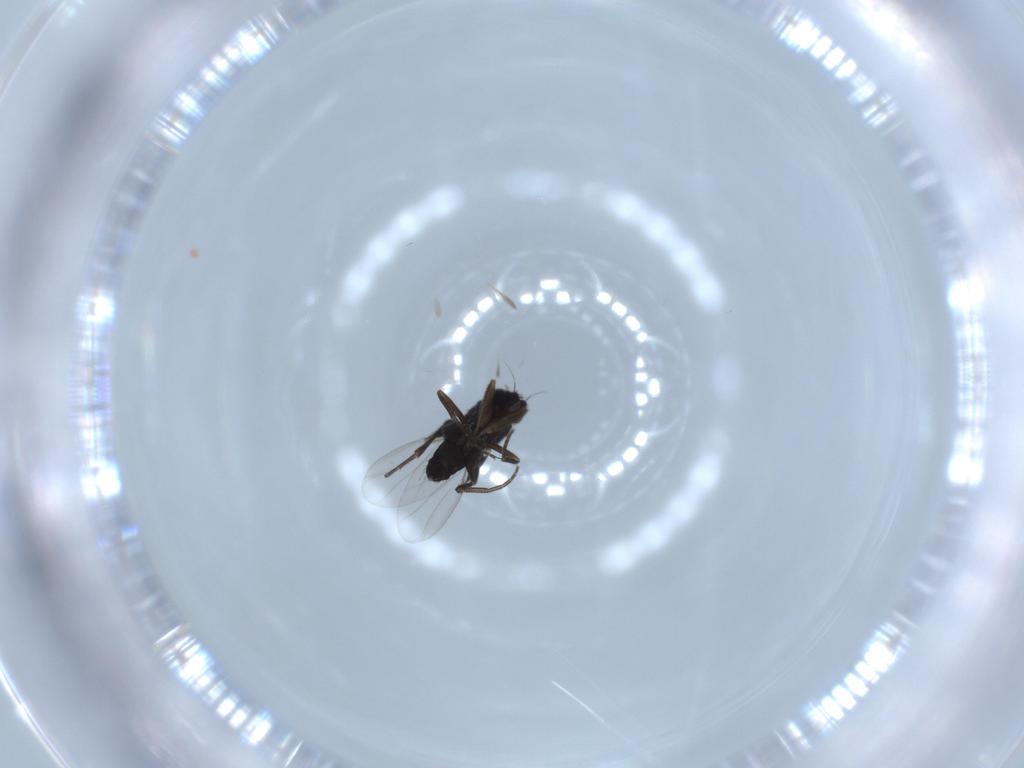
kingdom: Animalia
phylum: Arthropoda
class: Insecta
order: Diptera
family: Phoridae
